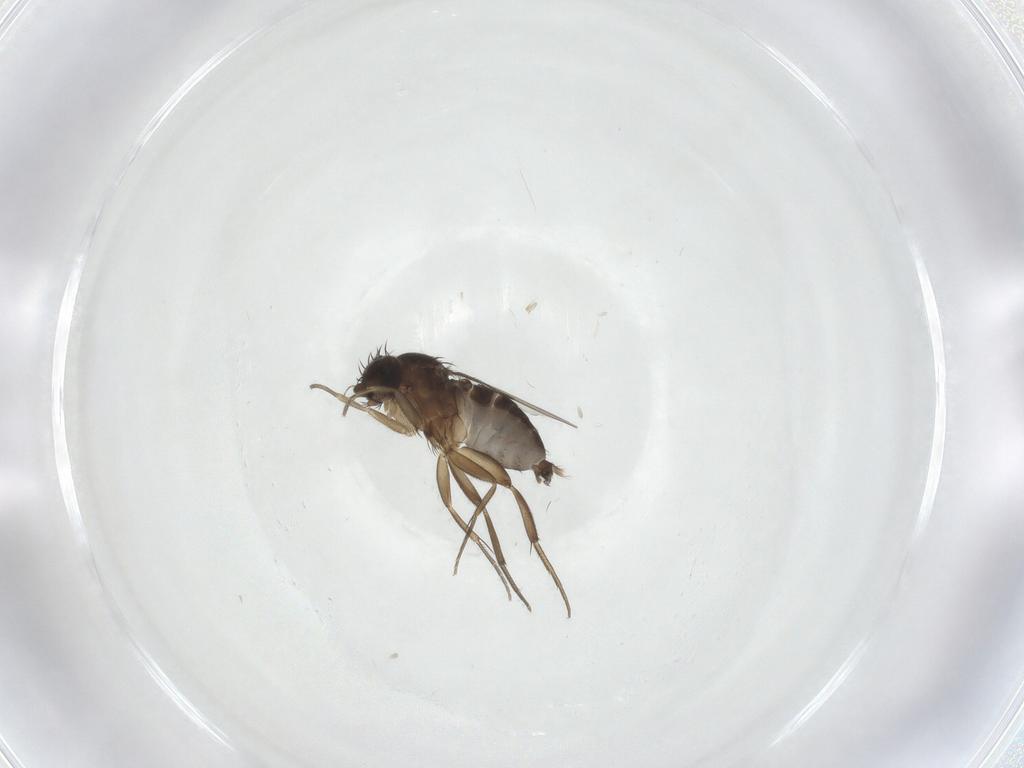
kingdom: Animalia
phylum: Arthropoda
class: Insecta
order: Diptera
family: Phoridae
